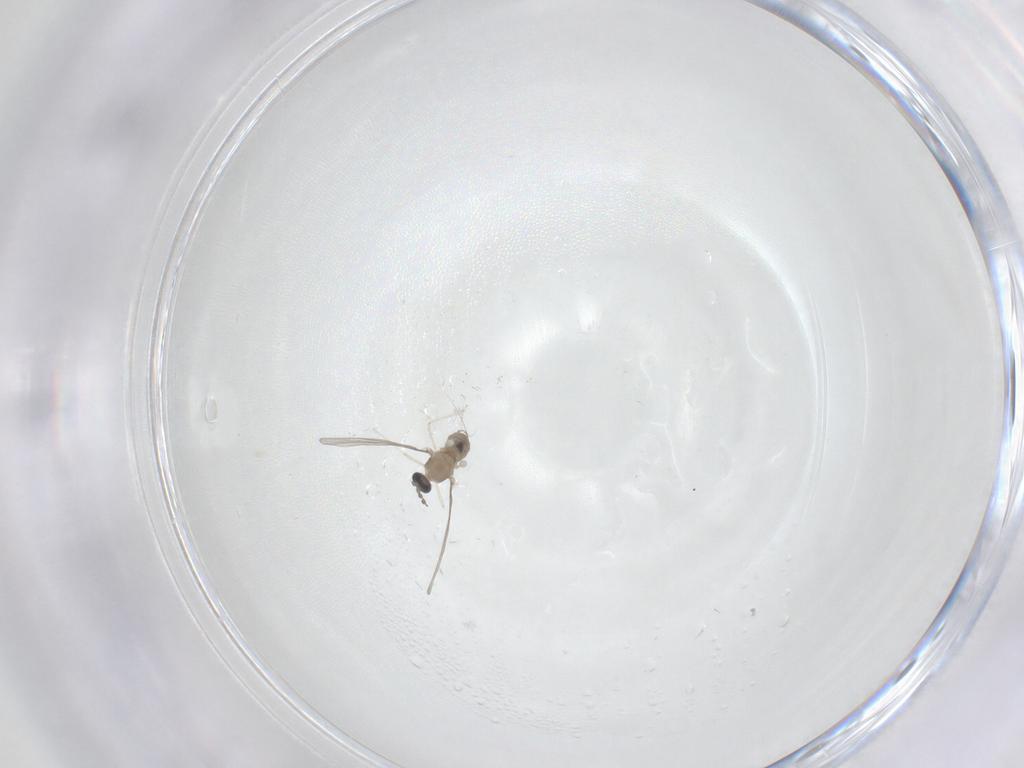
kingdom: Animalia
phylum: Arthropoda
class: Insecta
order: Diptera
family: Cecidomyiidae
